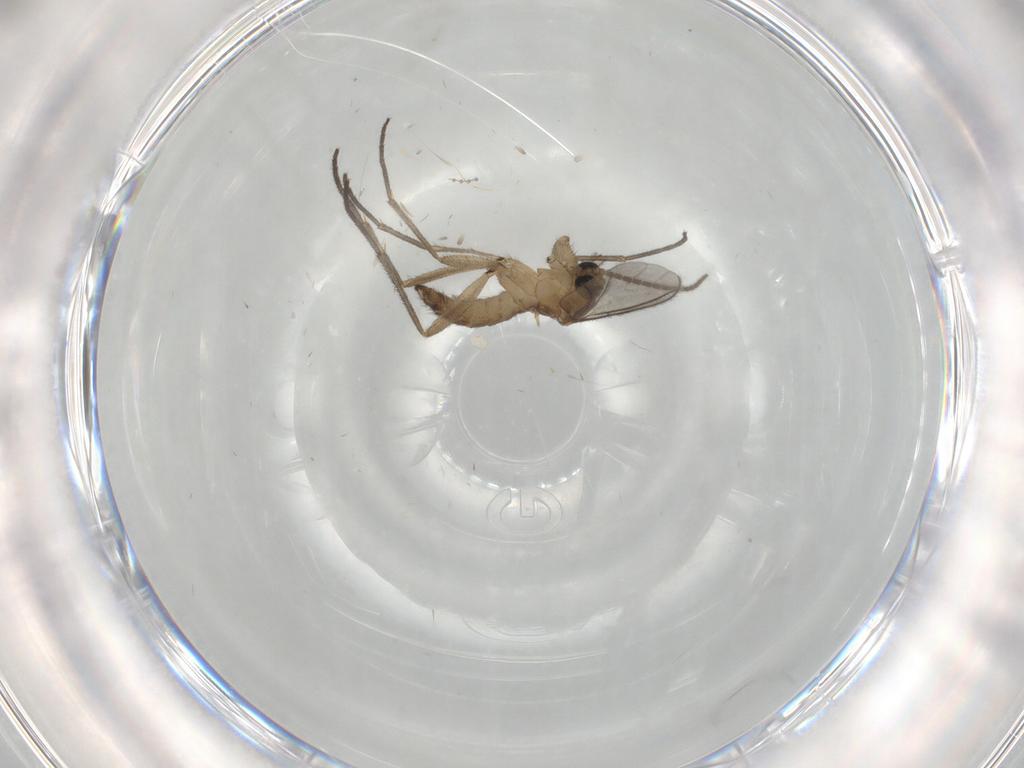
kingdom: Animalia
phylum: Arthropoda
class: Insecta
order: Diptera
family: Sciaridae
